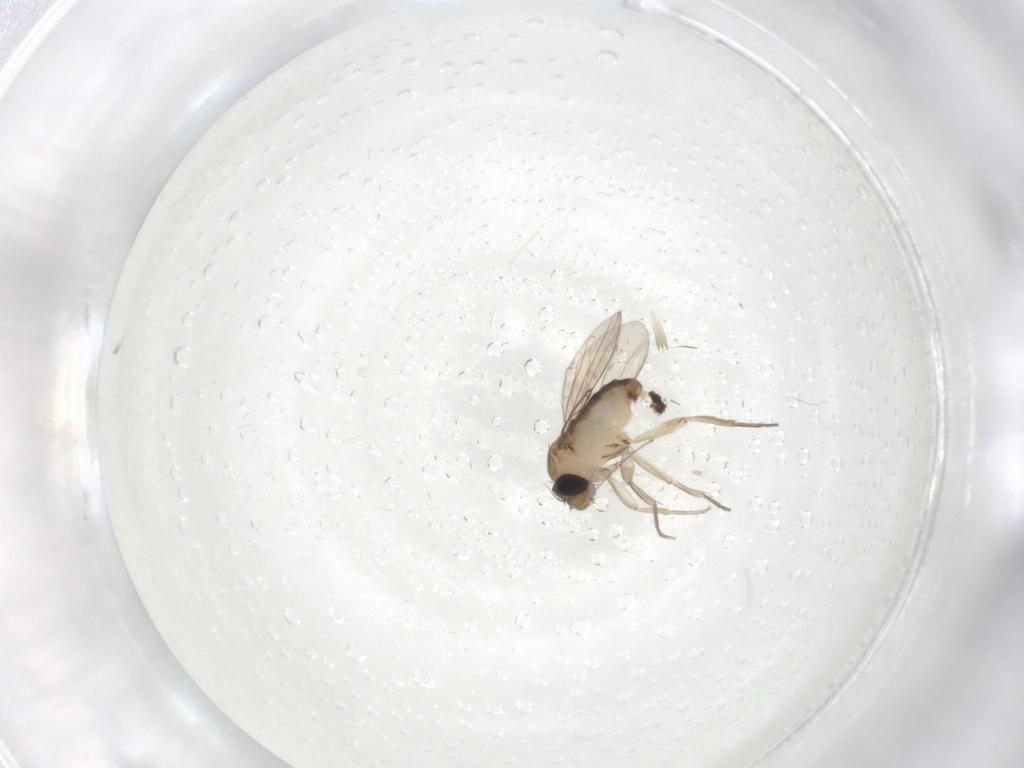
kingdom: Animalia
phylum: Arthropoda
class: Insecta
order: Diptera
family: Phoridae
